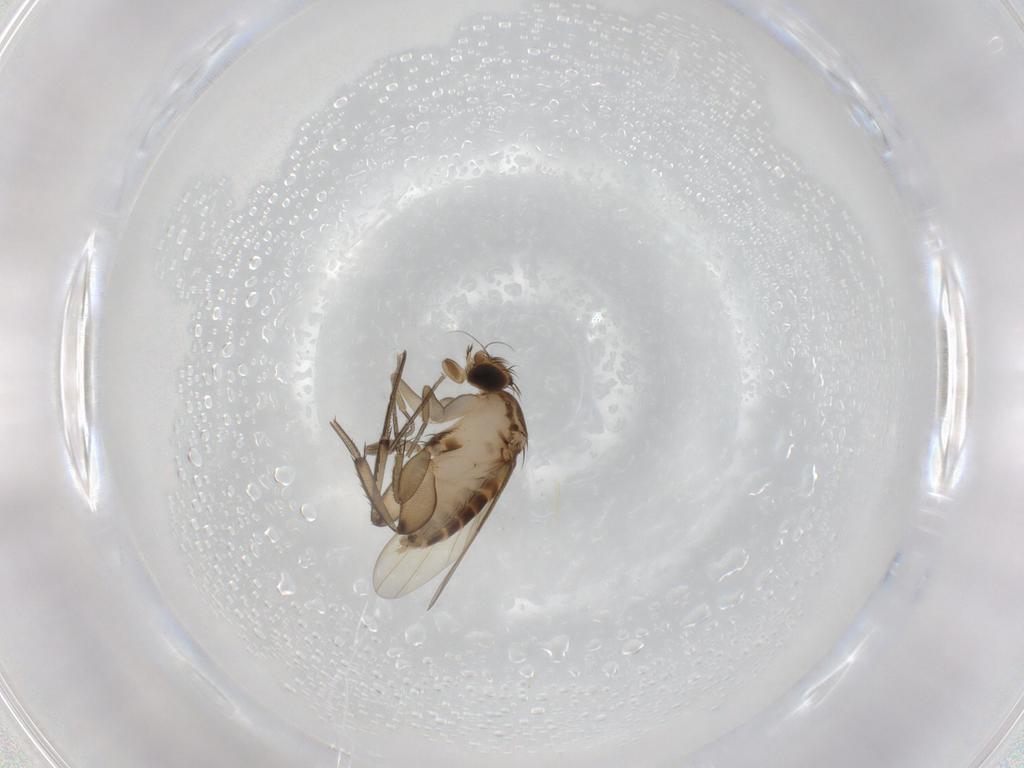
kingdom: Animalia
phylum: Arthropoda
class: Insecta
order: Diptera
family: Phoridae
